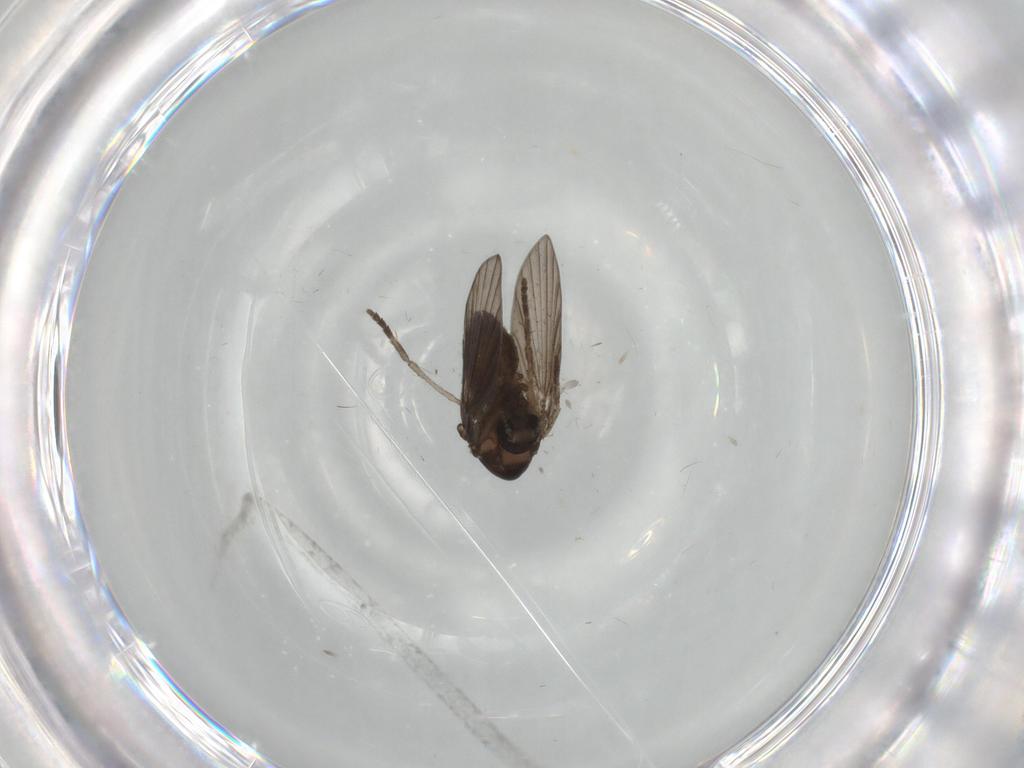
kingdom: Animalia
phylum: Arthropoda
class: Insecta
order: Diptera
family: Psychodidae
